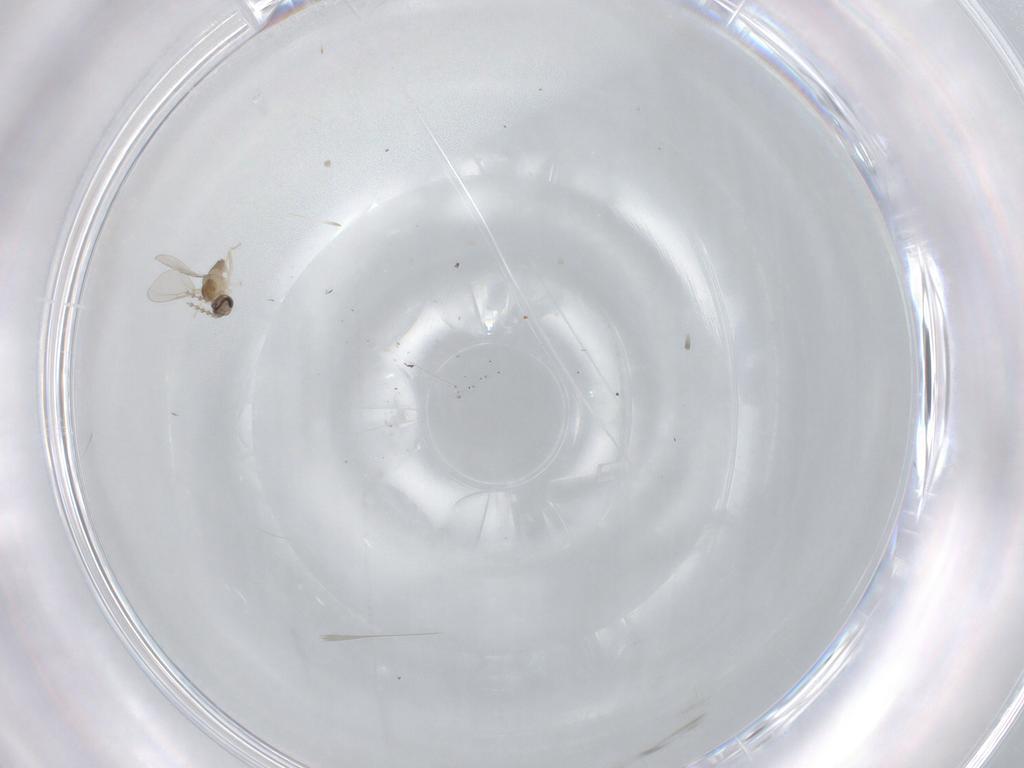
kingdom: Animalia
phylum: Arthropoda
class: Insecta
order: Diptera
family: Cecidomyiidae
